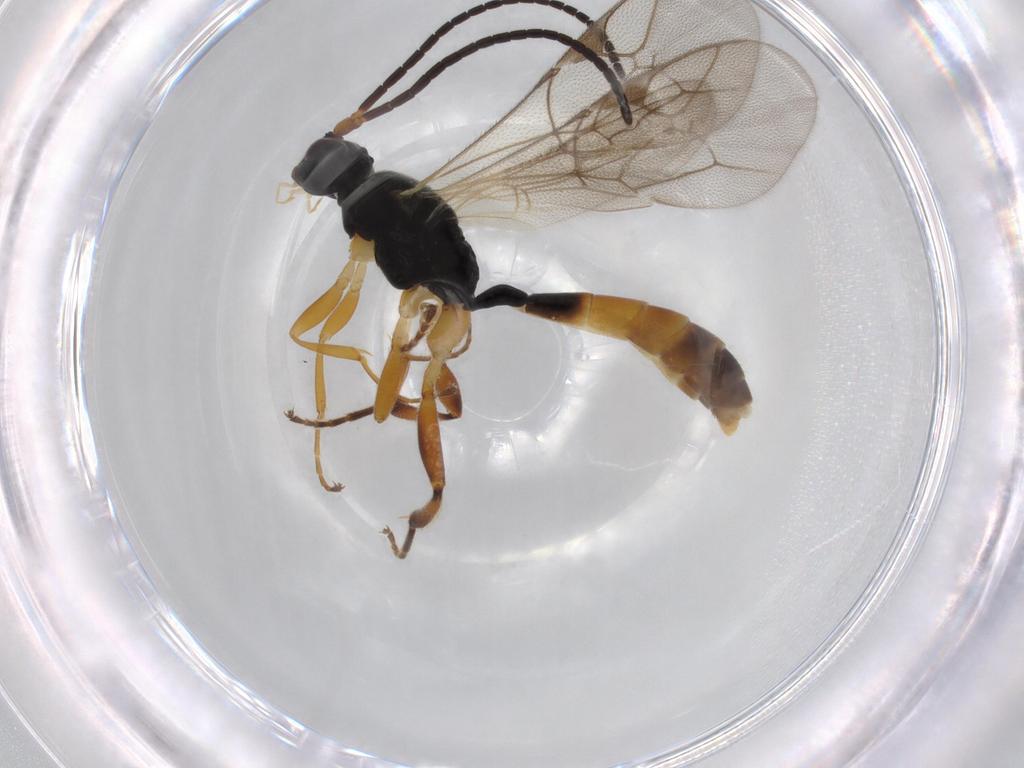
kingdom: Animalia
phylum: Arthropoda
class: Insecta
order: Hymenoptera
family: Ichneumonidae
